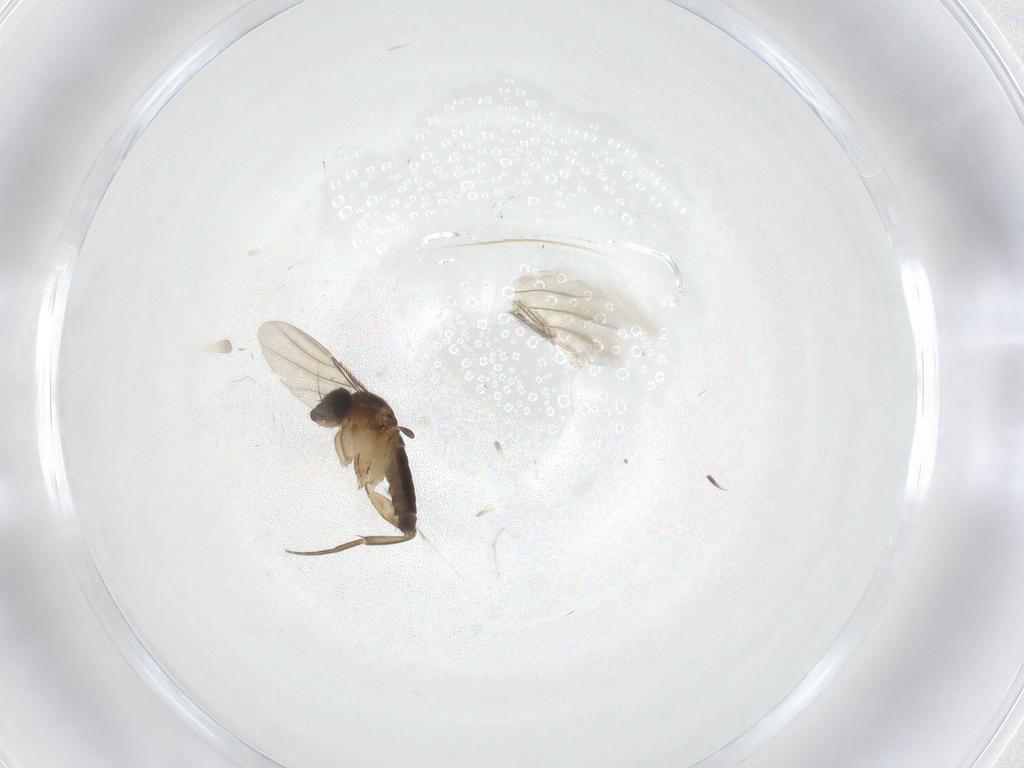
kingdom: Animalia
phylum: Arthropoda
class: Insecta
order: Diptera
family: Phoridae
